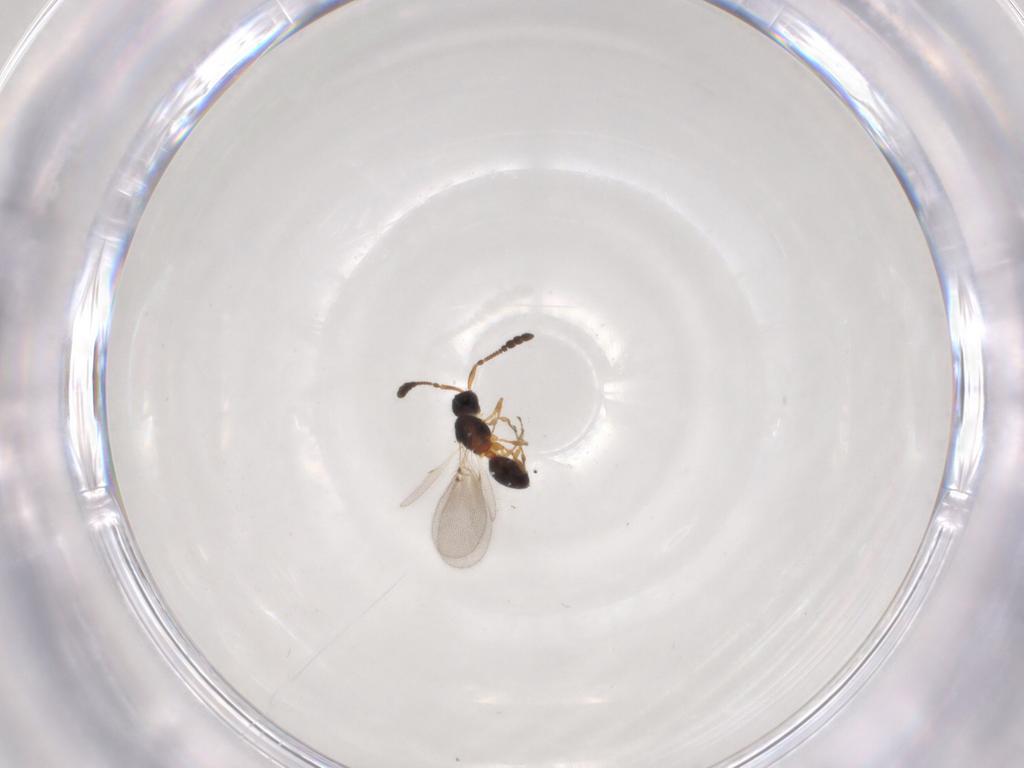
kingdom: Animalia
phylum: Arthropoda
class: Insecta
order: Hymenoptera
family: Diapriidae
